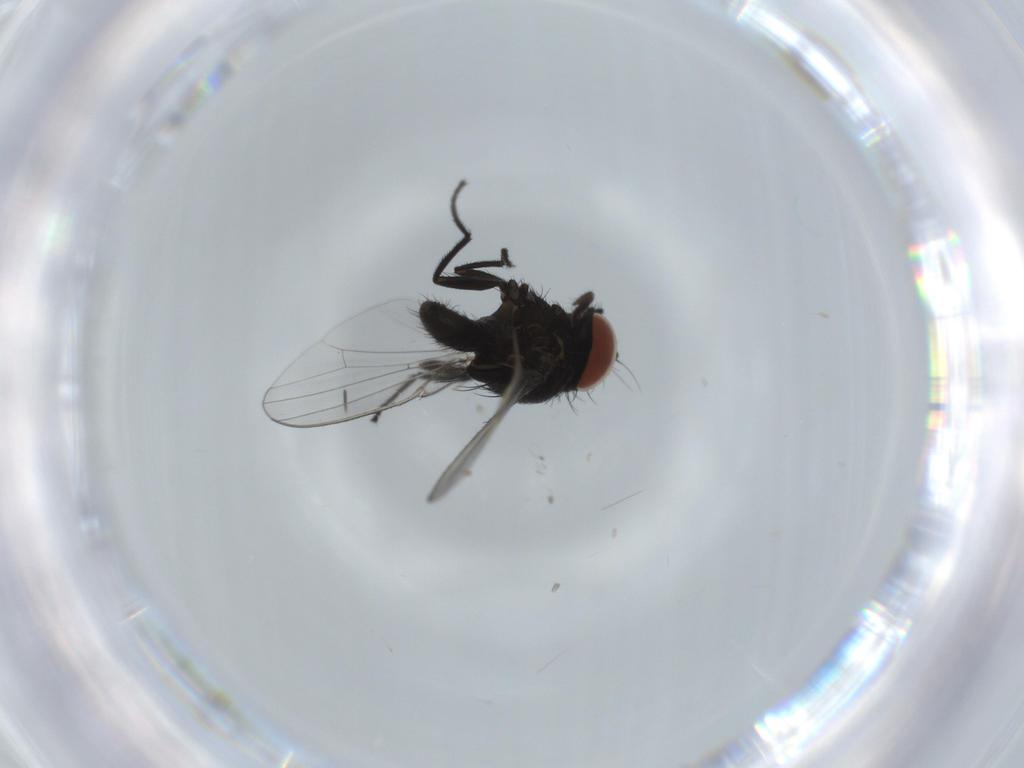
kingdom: Animalia
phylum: Arthropoda
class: Insecta
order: Diptera
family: Milichiidae
